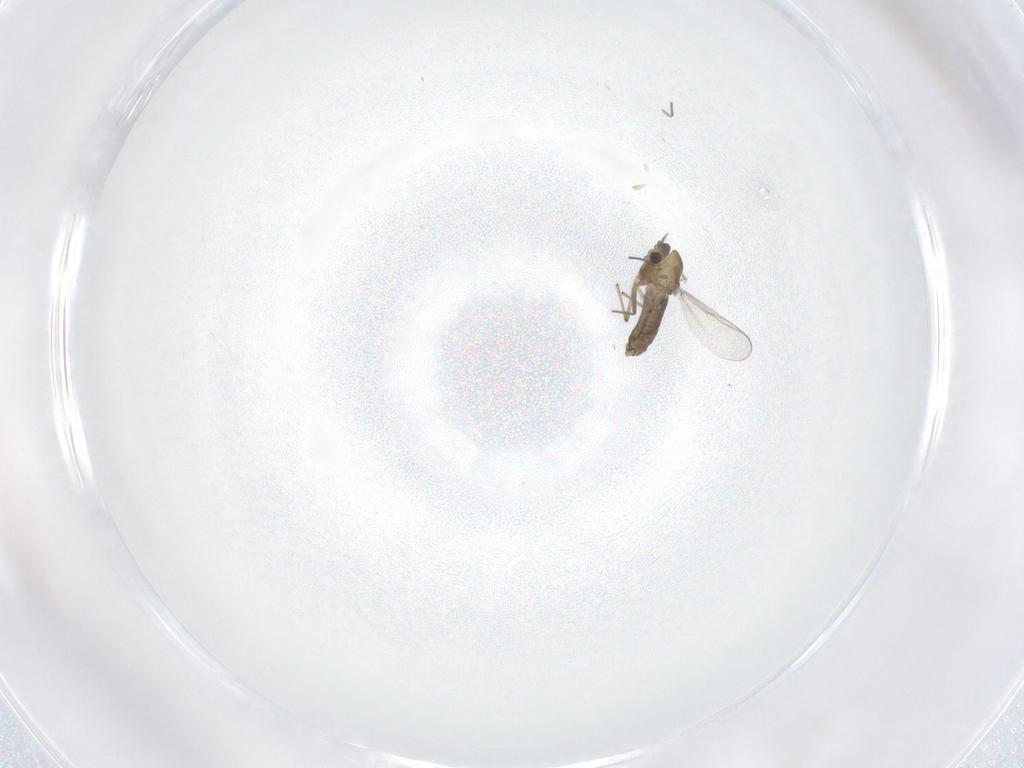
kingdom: Animalia
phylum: Arthropoda
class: Insecta
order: Diptera
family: Chironomidae
